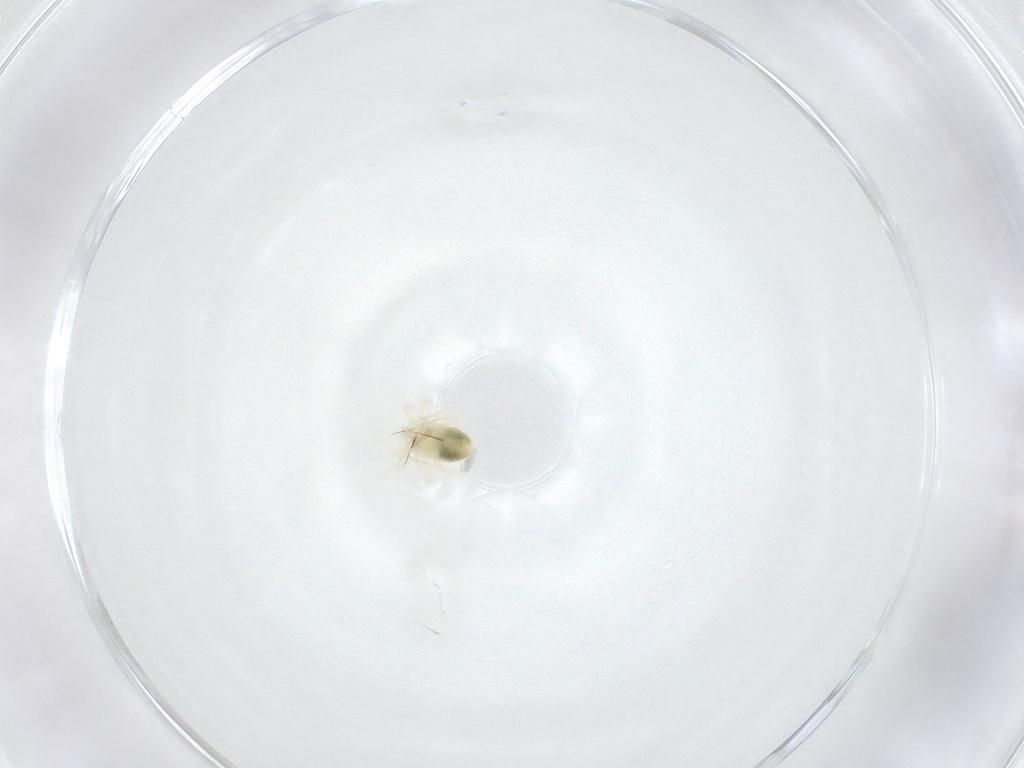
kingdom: Animalia
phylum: Arthropoda
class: Insecta
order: Psocodea
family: Peripsocidae
